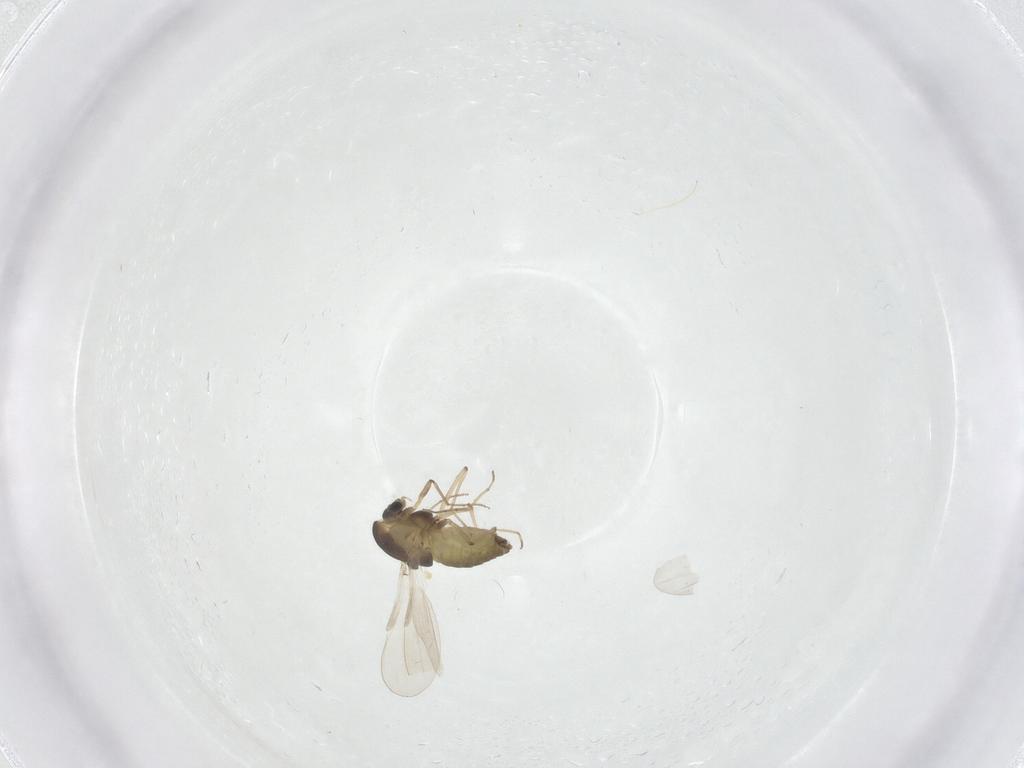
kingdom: Animalia
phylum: Arthropoda
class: Insecta
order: Diptera
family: Chironomidae
